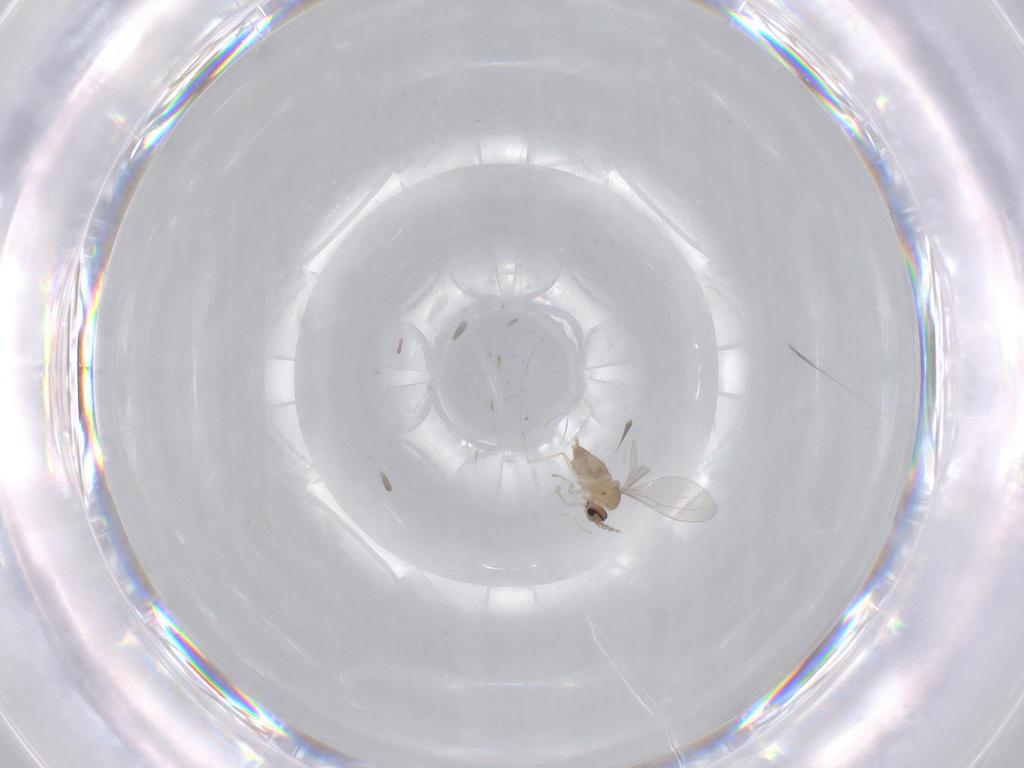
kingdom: Animalia
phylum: Arthropoda
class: Insecta
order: Diptera
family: Cecidomyiidae
